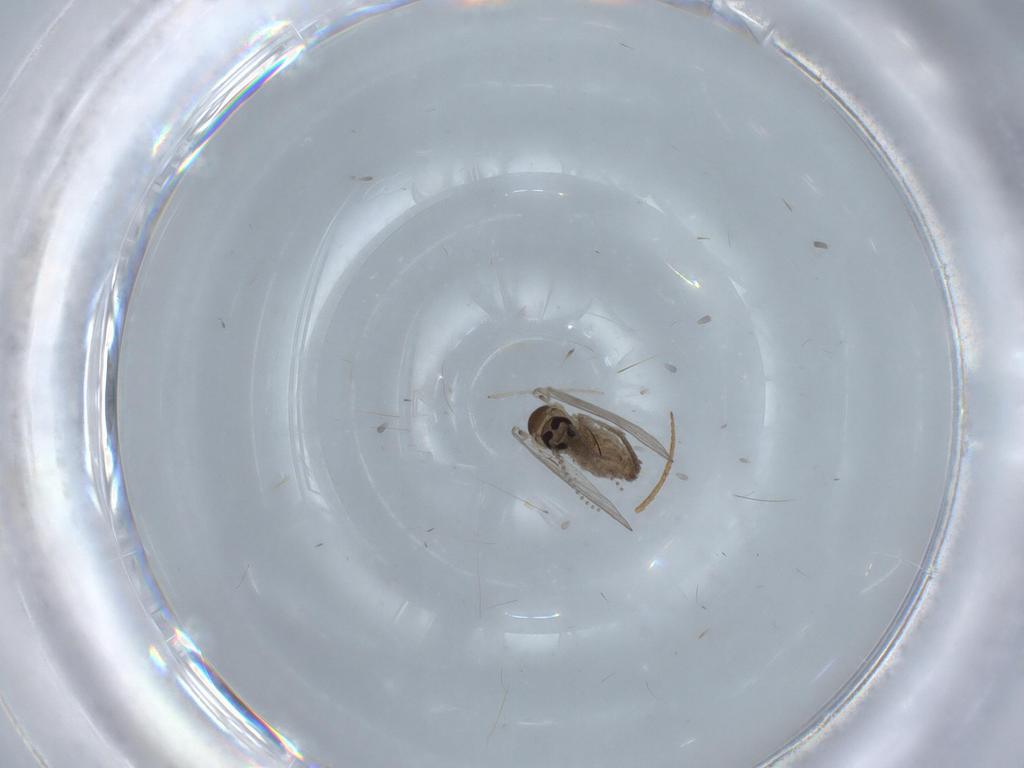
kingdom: Animalia
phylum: Arthropoda
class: Insecta
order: Diptera
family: Psychodidae
